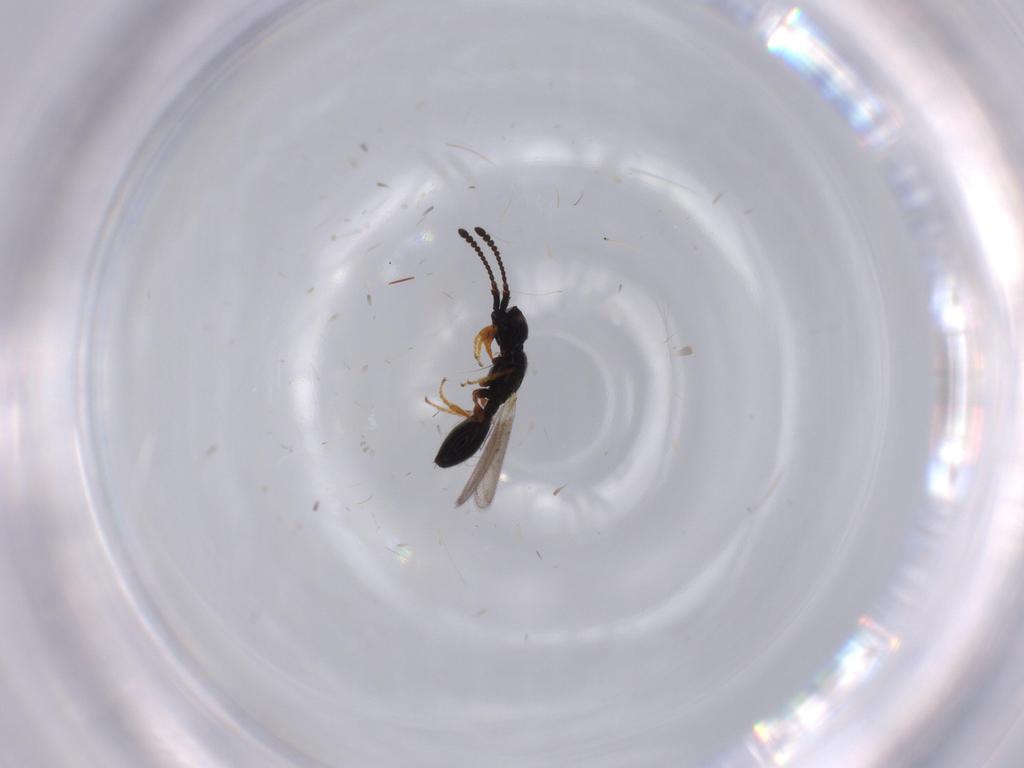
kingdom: Animalia
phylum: Arthropoda
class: Insecta
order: Hymenoptera
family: Diapriidae
